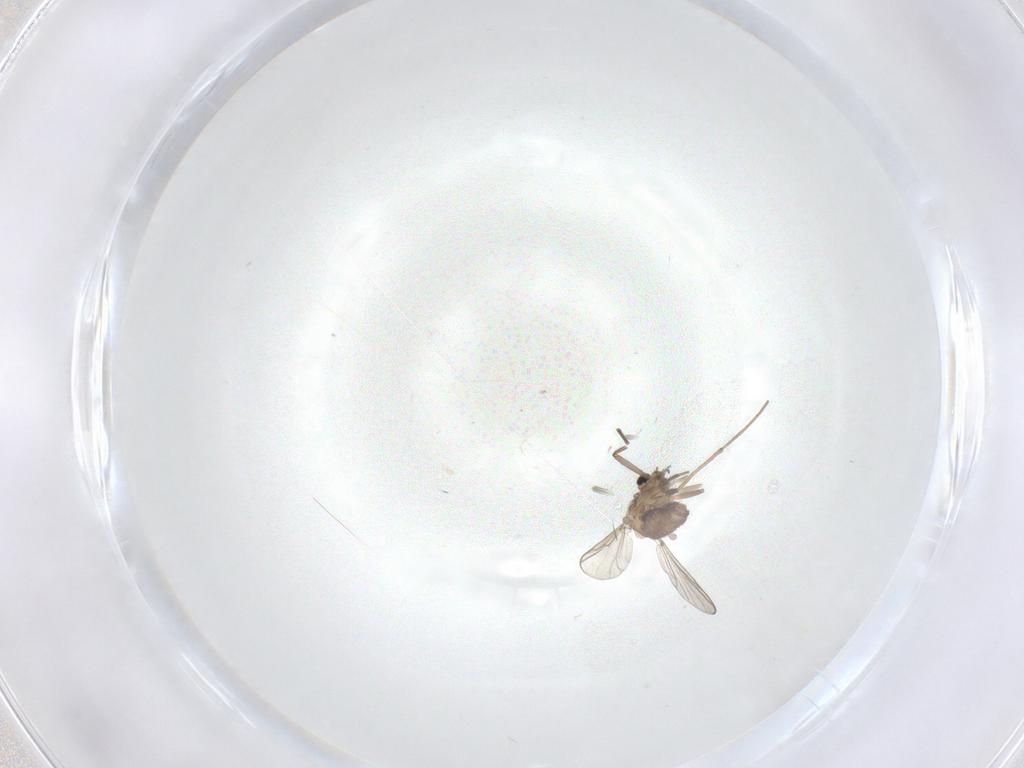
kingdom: Animalia
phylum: Arthropoda
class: Insecta
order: Diptera
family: Chironomidae
